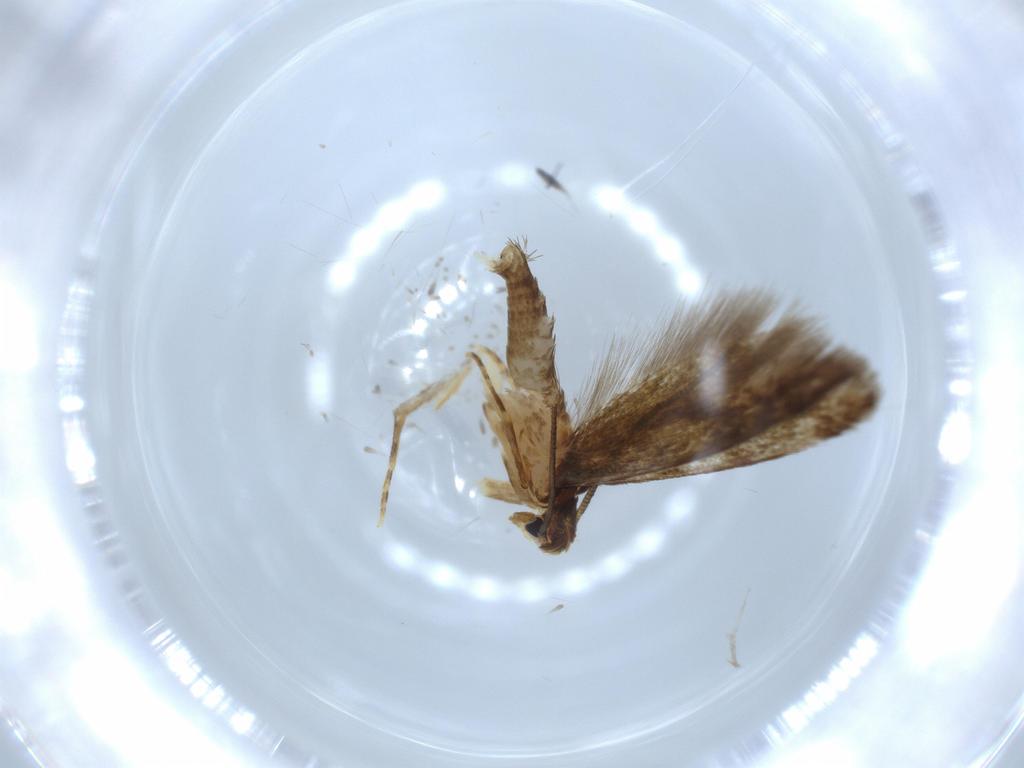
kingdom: Animalia
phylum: Arthropoda
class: Insecta
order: Lepidoptera
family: Tineidae
